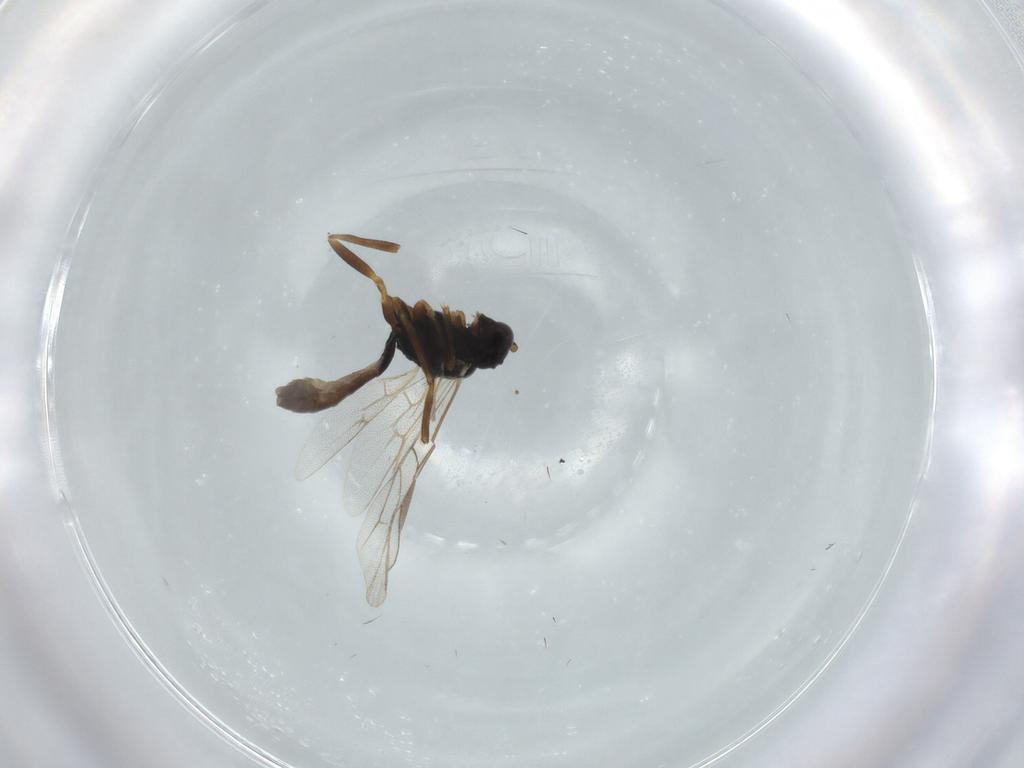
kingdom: Animalia
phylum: Arthropoda
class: Insecta
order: Hymenoptera
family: Ichneumonidae
